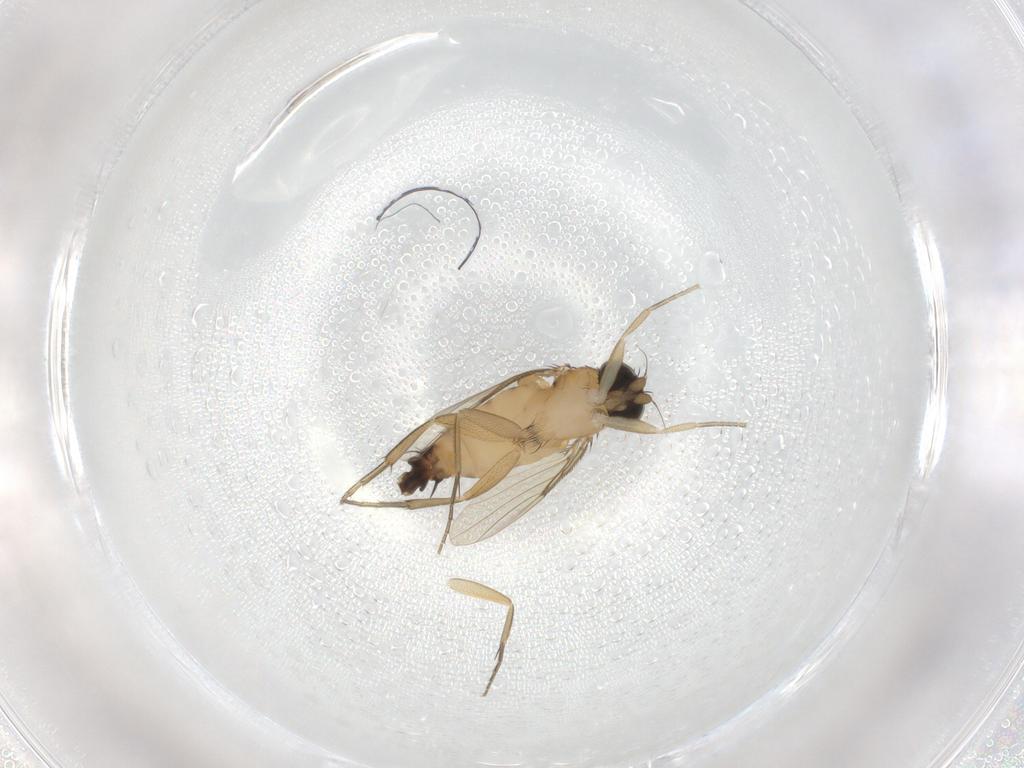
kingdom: Animalia
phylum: Arthropoda
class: Insecta
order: Diptera
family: Phoridae
